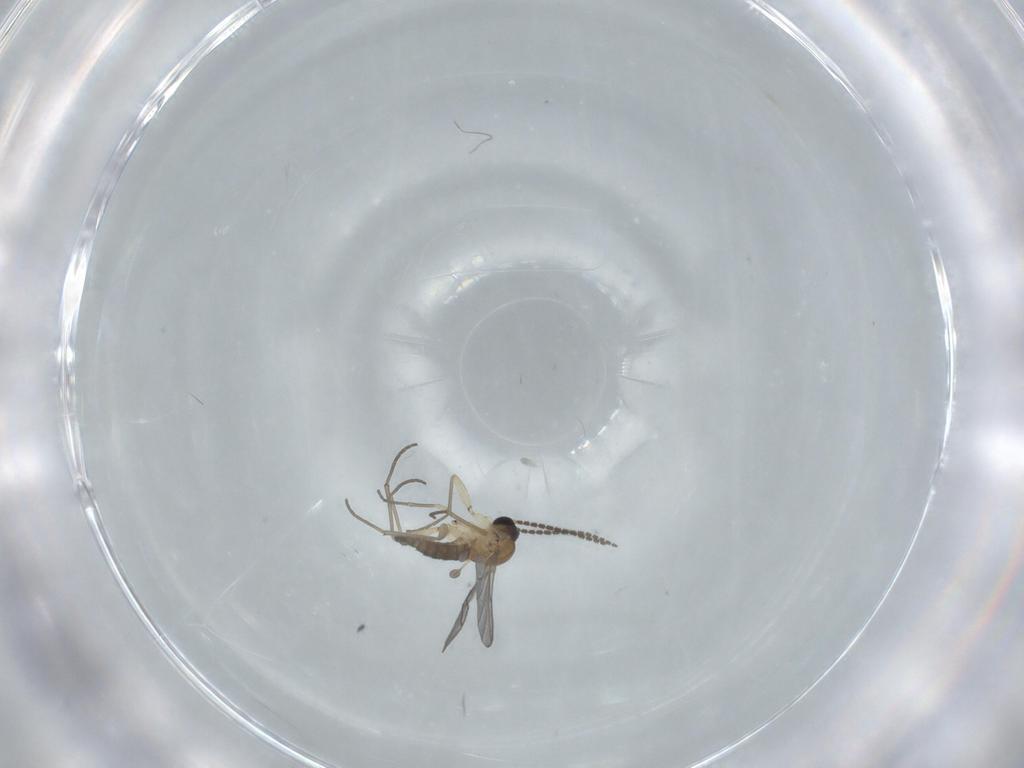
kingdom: Animalia
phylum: Arthropoda
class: Insecta
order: Diptera
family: Sciaridae
